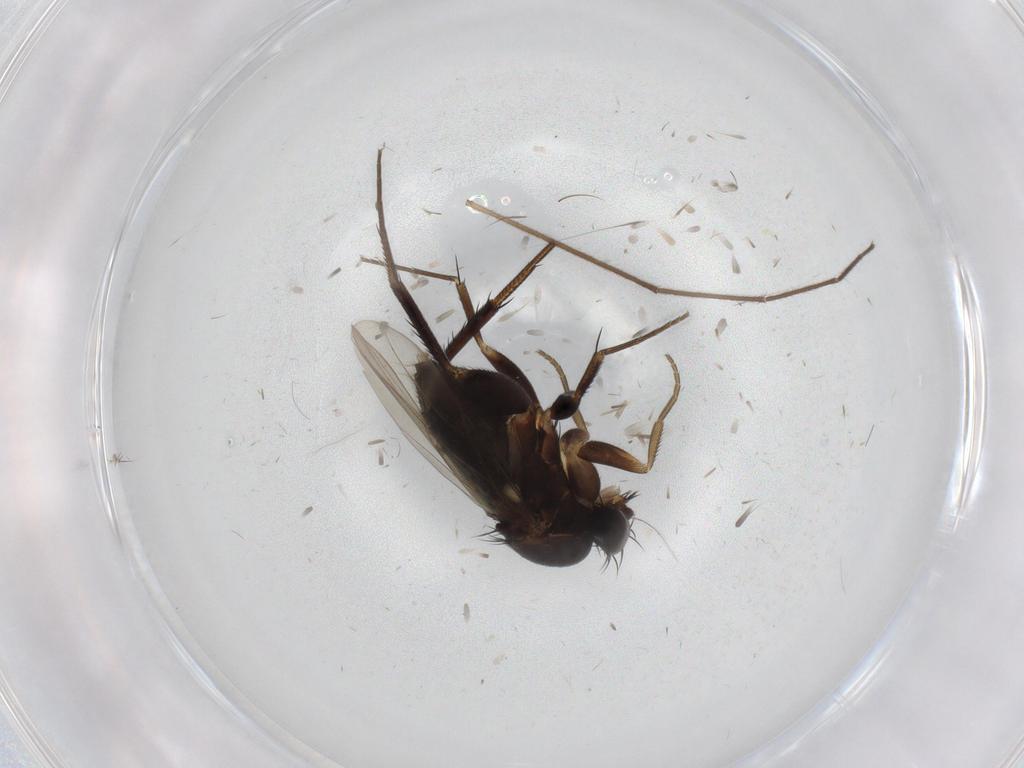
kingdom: Animalia
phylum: Arthropoda
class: Insecta
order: Diptera
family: Phoridae
